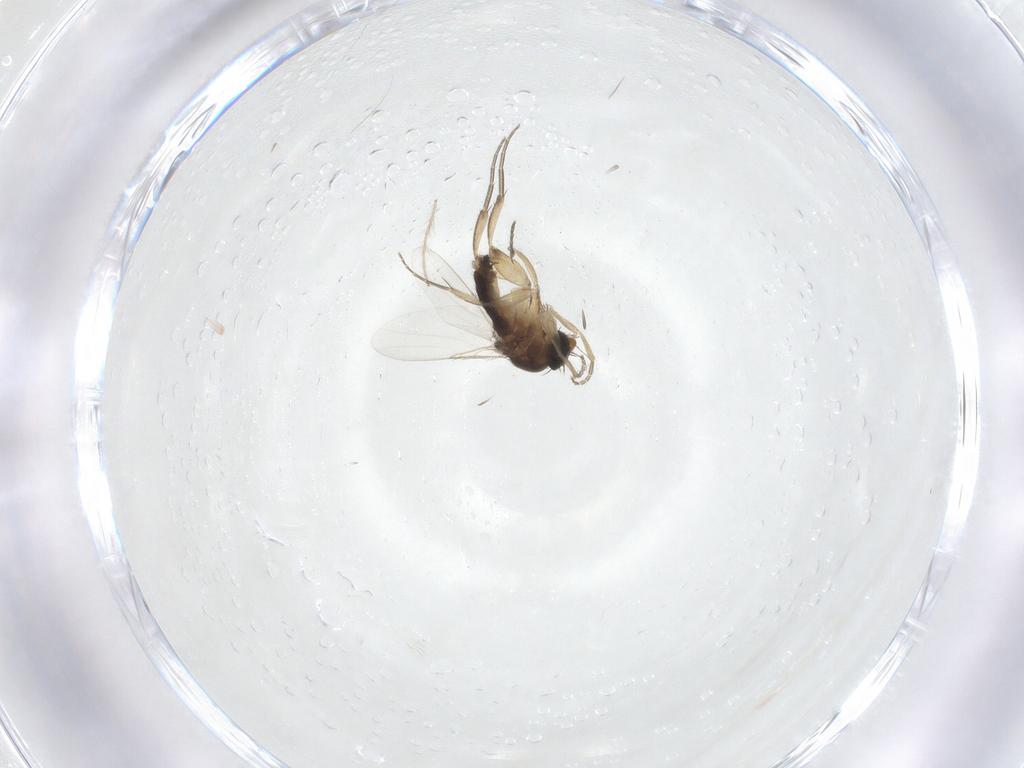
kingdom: Animalia
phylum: Arthropoda
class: Insecta
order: Diptera
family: Phoridae
